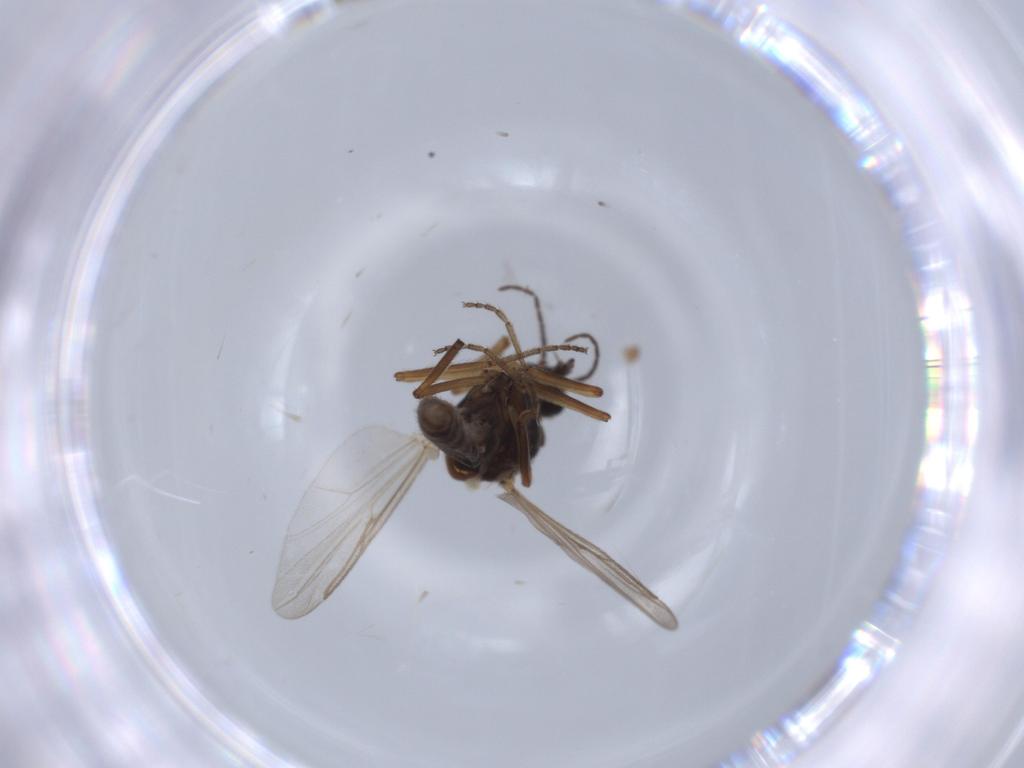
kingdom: Animalia
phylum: Arthropoda
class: Insecta
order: Diptera
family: Ceratopogonidae
